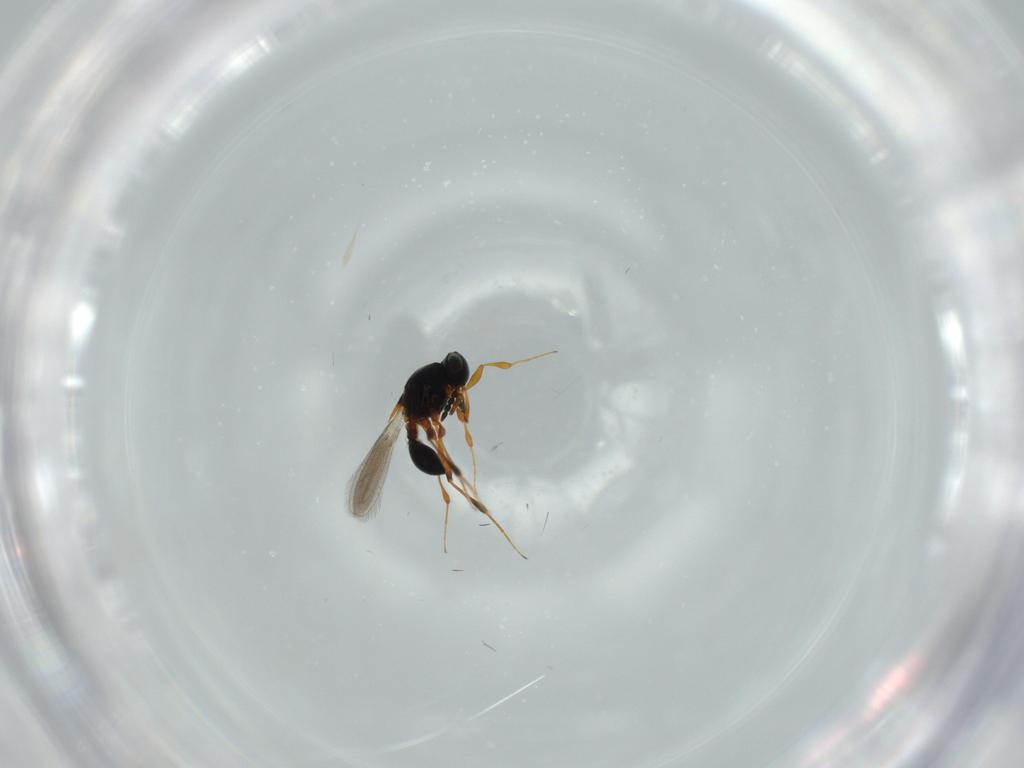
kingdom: Animalia
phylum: Arthropoda
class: Insecta
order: Hymenoptera
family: Platygastridae
